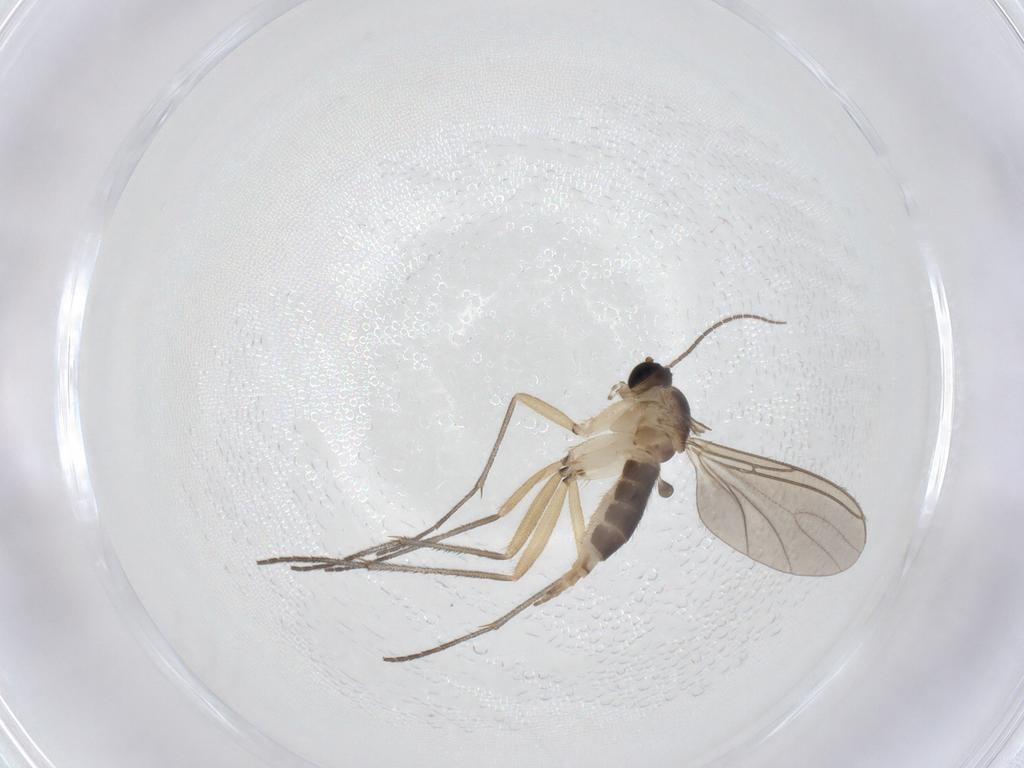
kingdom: Animalia
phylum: Arthropoda
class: Insecta
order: Diptera
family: Sciaridae
